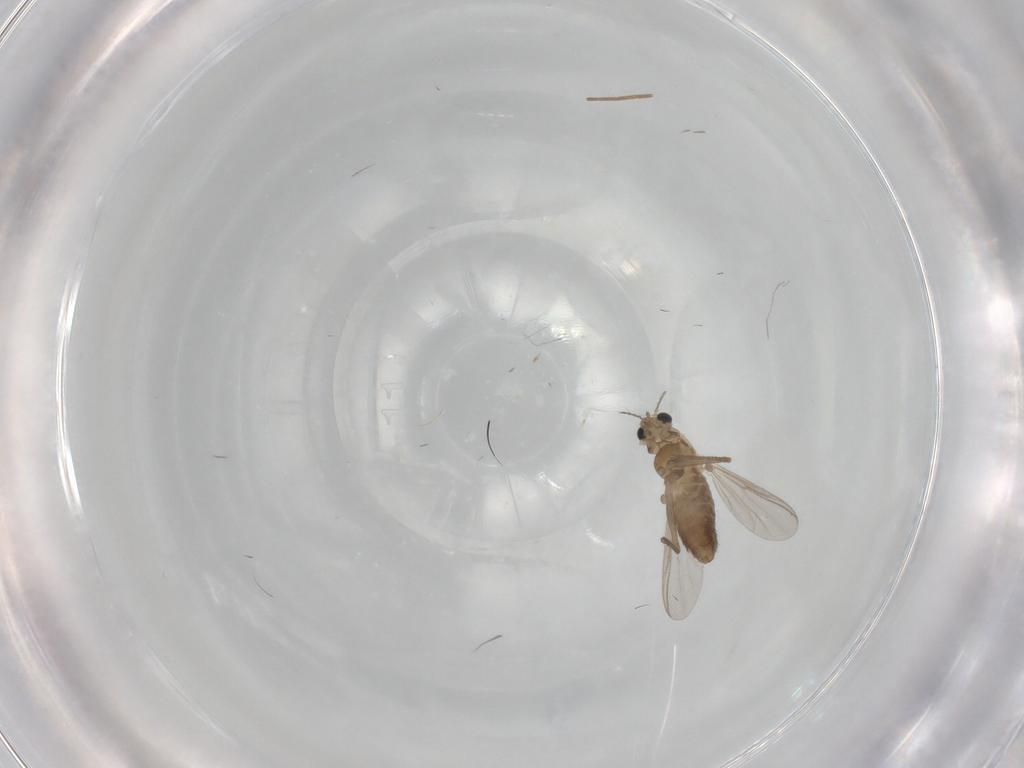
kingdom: Animalia
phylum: Arthropoda
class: Insecta
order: Diptera
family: Chironomidae
